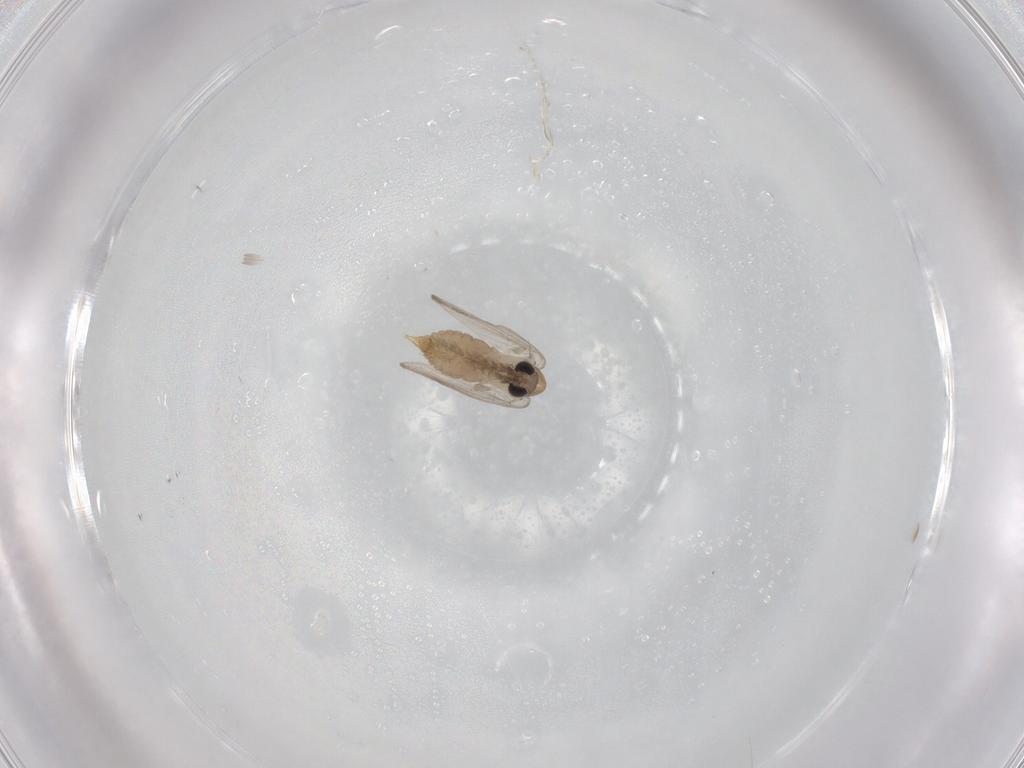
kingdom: Animalia
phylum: Arthropoda
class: Insecta
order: Diptera
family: Psychodidae
